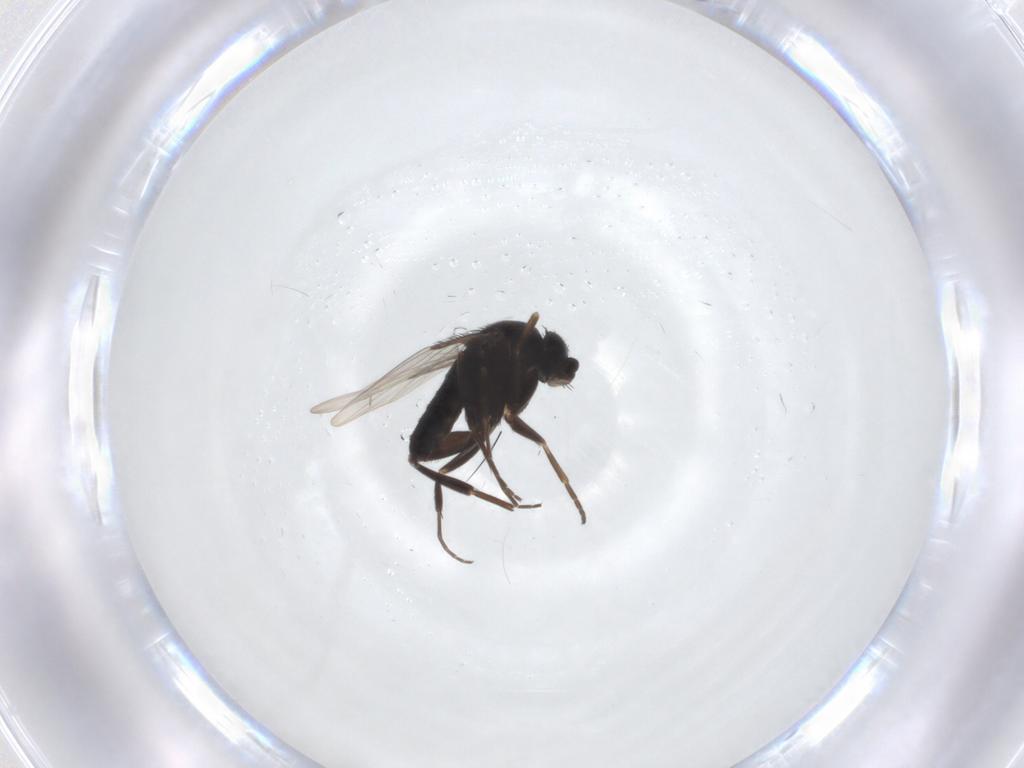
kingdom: Animalia
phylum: Arthropoda
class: Insecta
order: Diptera
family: Phoridae
